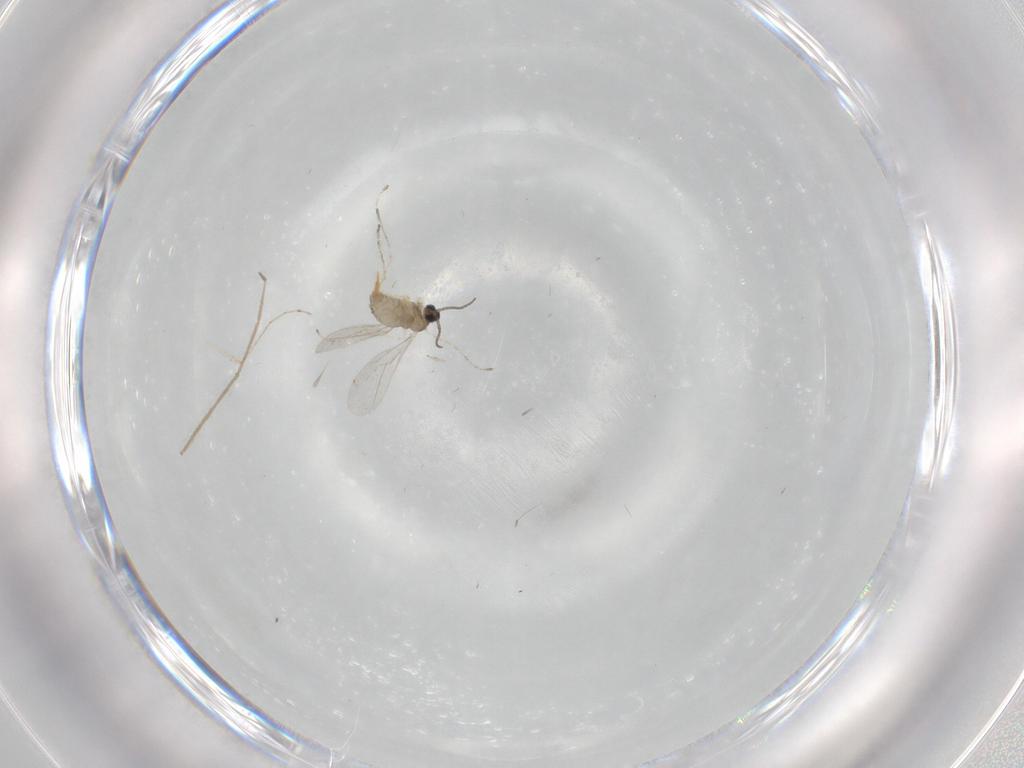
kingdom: Animalia
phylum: Arthropoda
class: Insecta
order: Diptera
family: Cecidomyiidae
